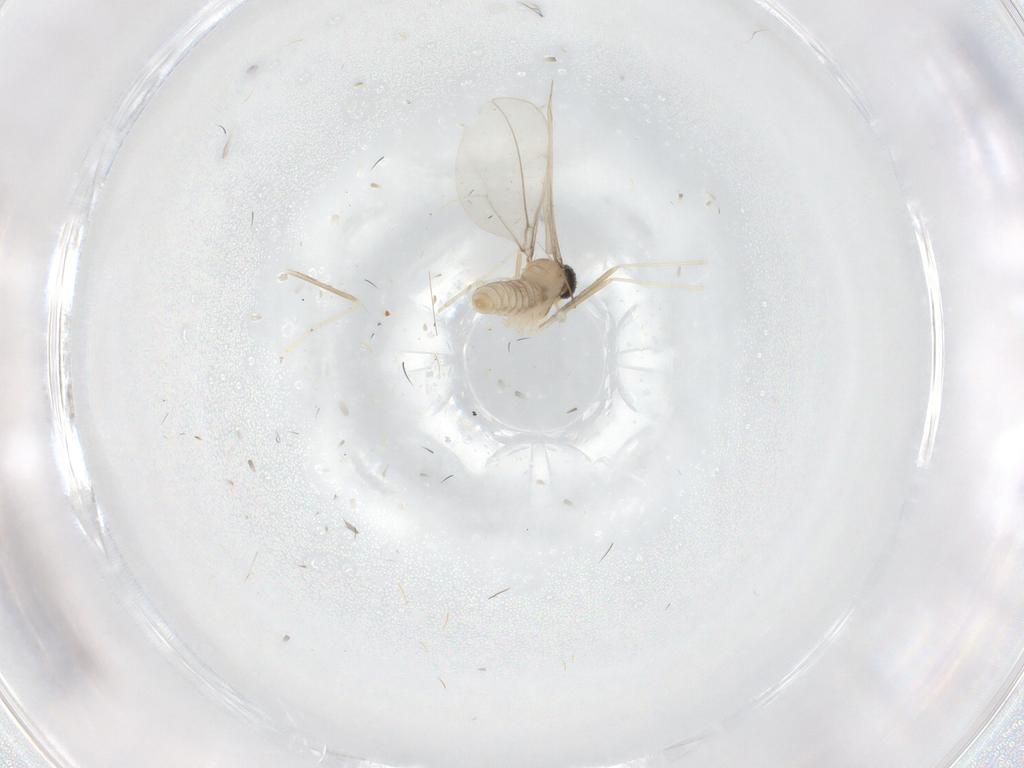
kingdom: Animalia
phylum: Arthropoda
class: Insecta
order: Diptera
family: Cecidomyiidae
